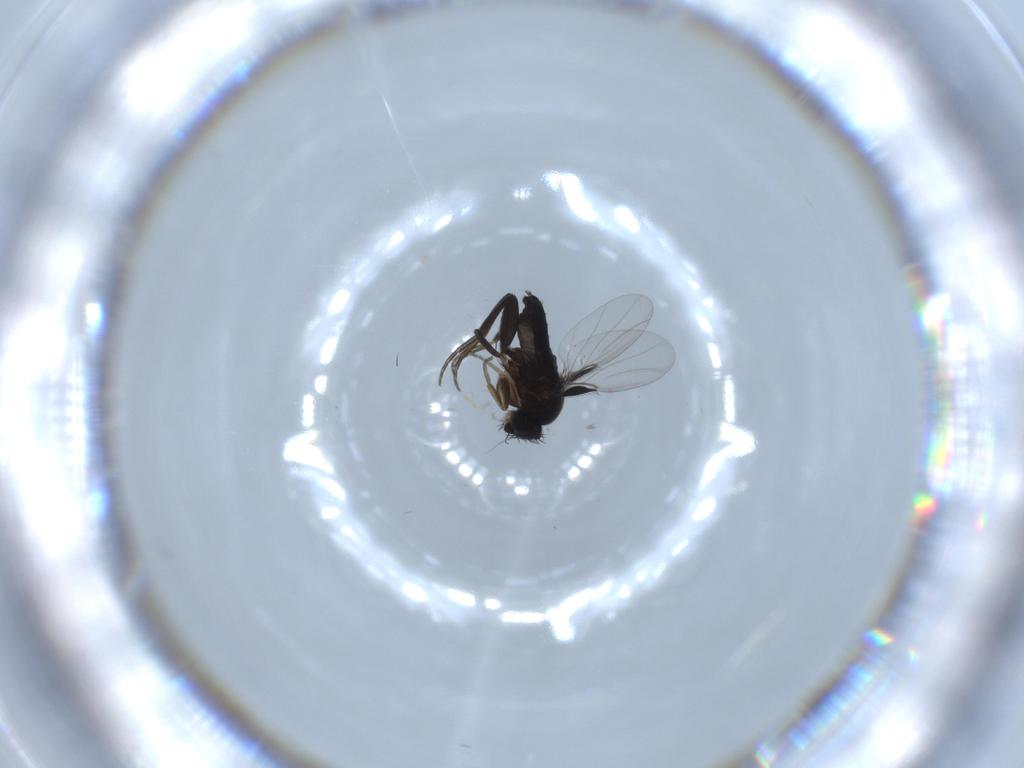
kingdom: Animalia
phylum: Arthropoda
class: Insecta
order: Diptera
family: Phoridae
